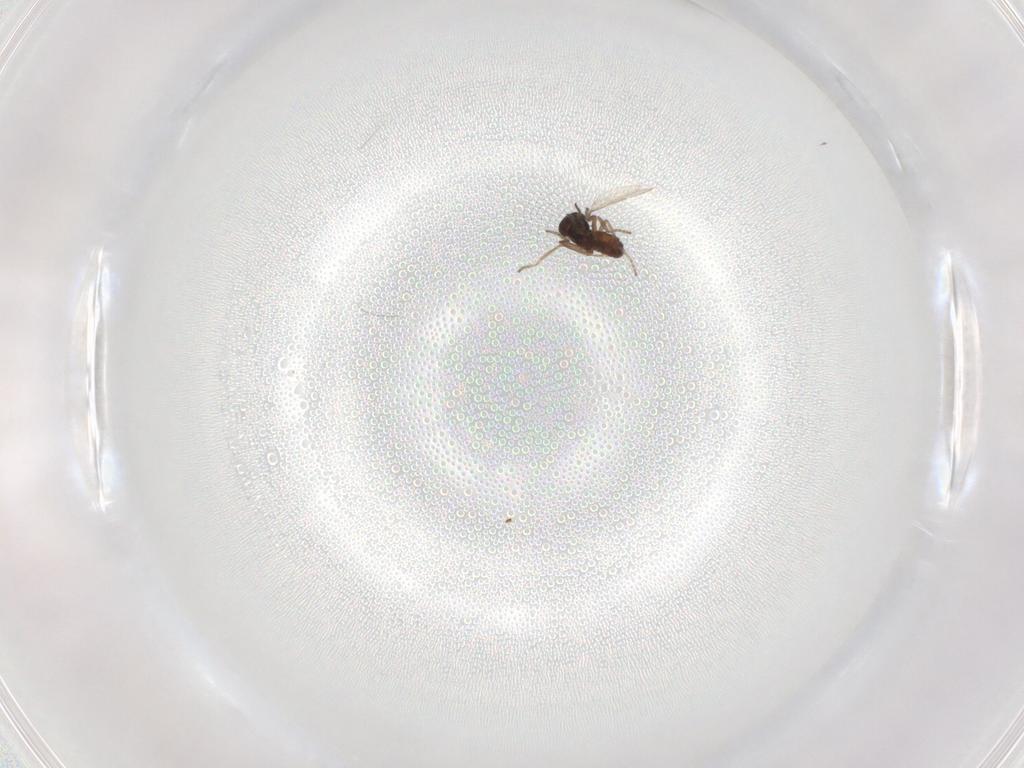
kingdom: Animalia
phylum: Arthropoda
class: Insecta
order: Diptera
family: Ceratopogonidae
